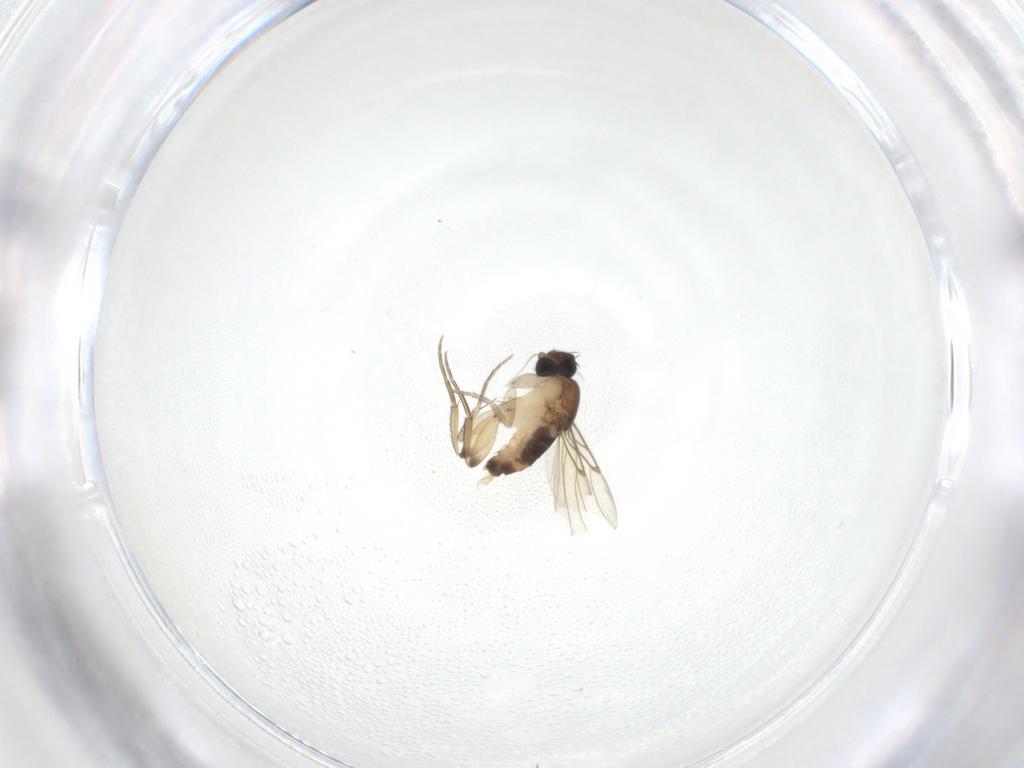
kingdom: Animalia
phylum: Arthropoda
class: Insecta
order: Diptera
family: Phoridae
